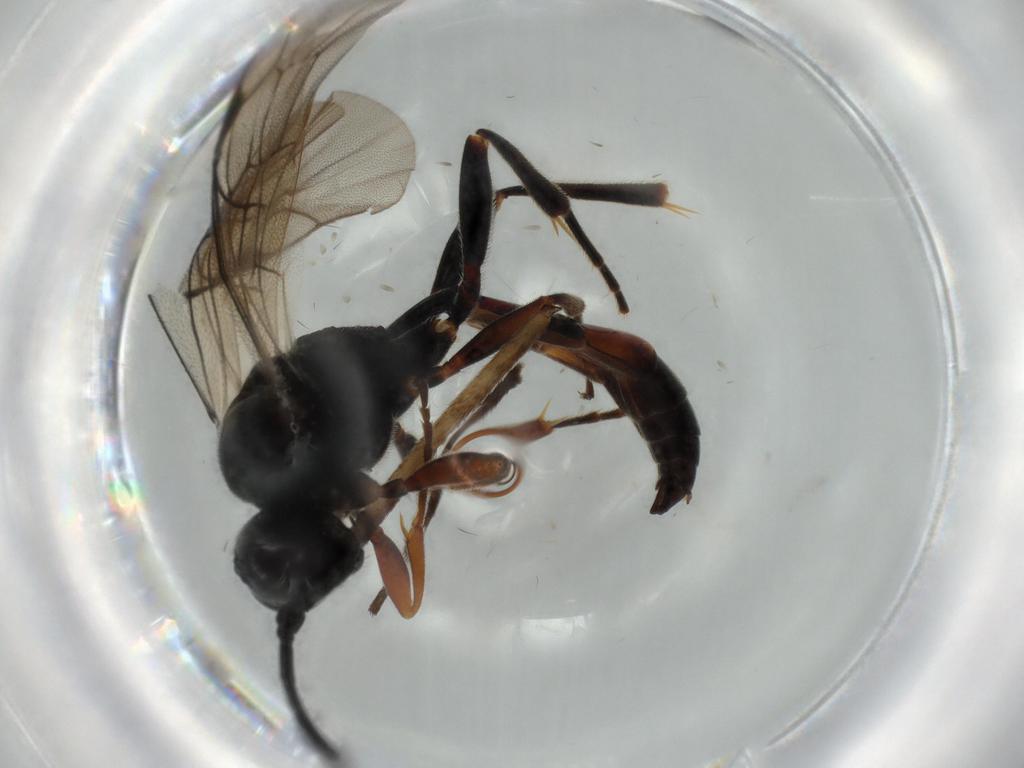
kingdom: Animalia
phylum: Arthropoda
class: Insecta
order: Hymenoptera
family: Ichneumonidae
